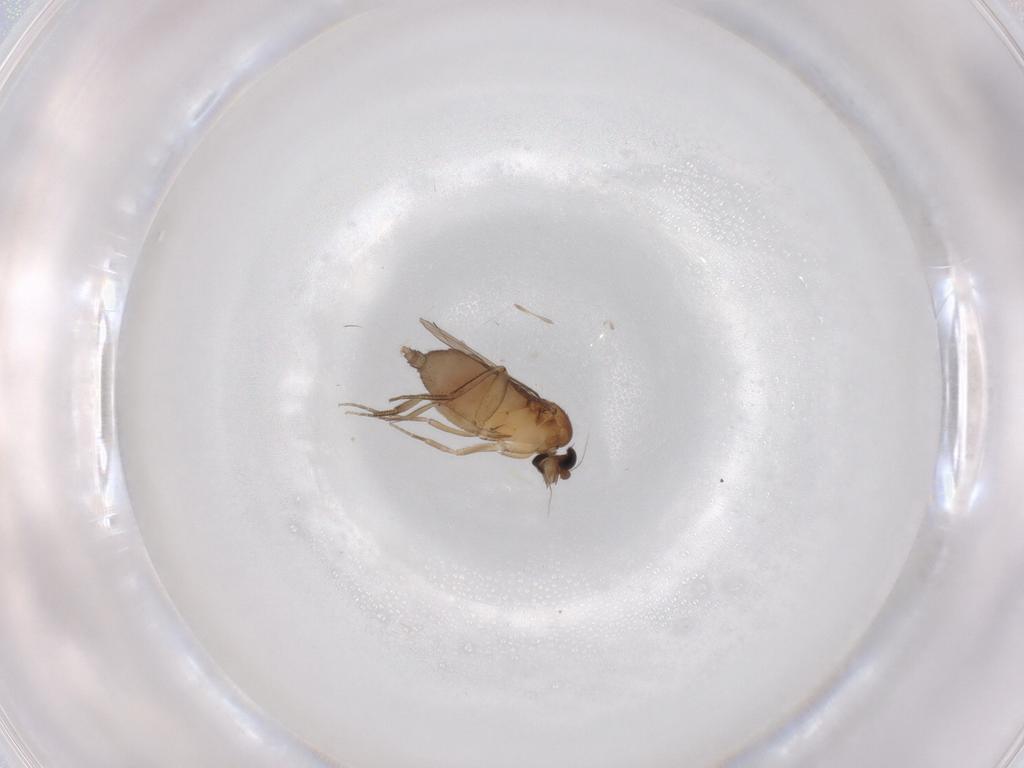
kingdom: Animalia
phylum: Arthropoda
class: Insecta
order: Diptera
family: Phoridae
